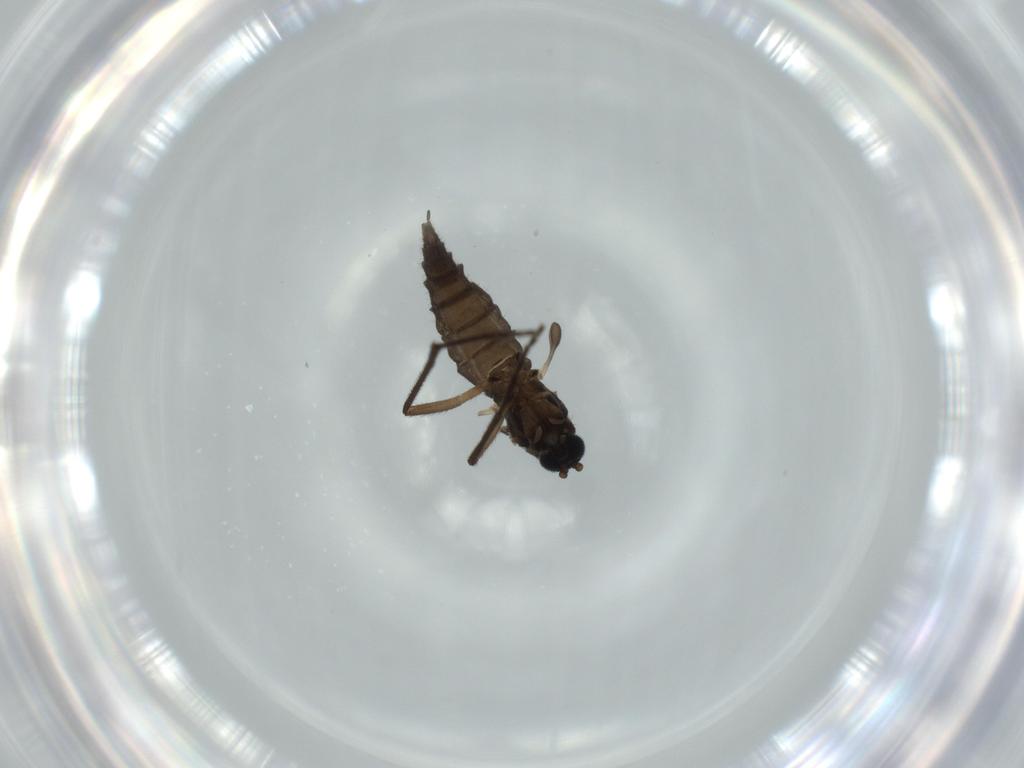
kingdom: Animalia
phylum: Arthropoda
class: Insecta
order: Diptera
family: Sciaridae
